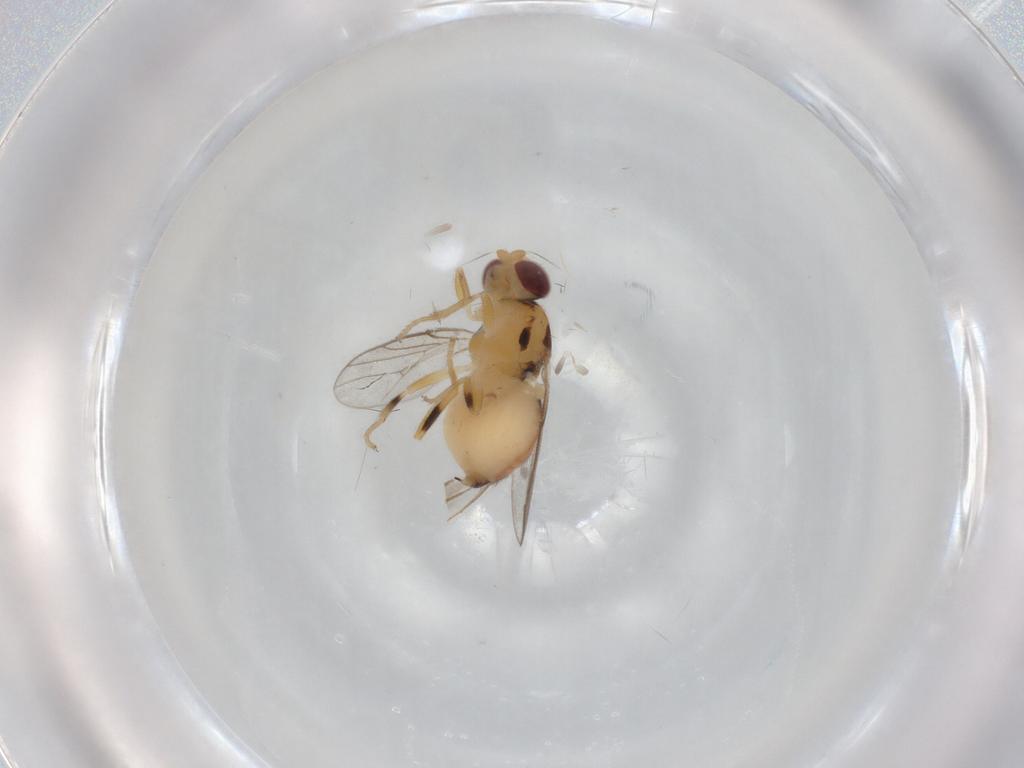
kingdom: Animalia
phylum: Arthropoda
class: Insecta
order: Diptera
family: Chloropidae
